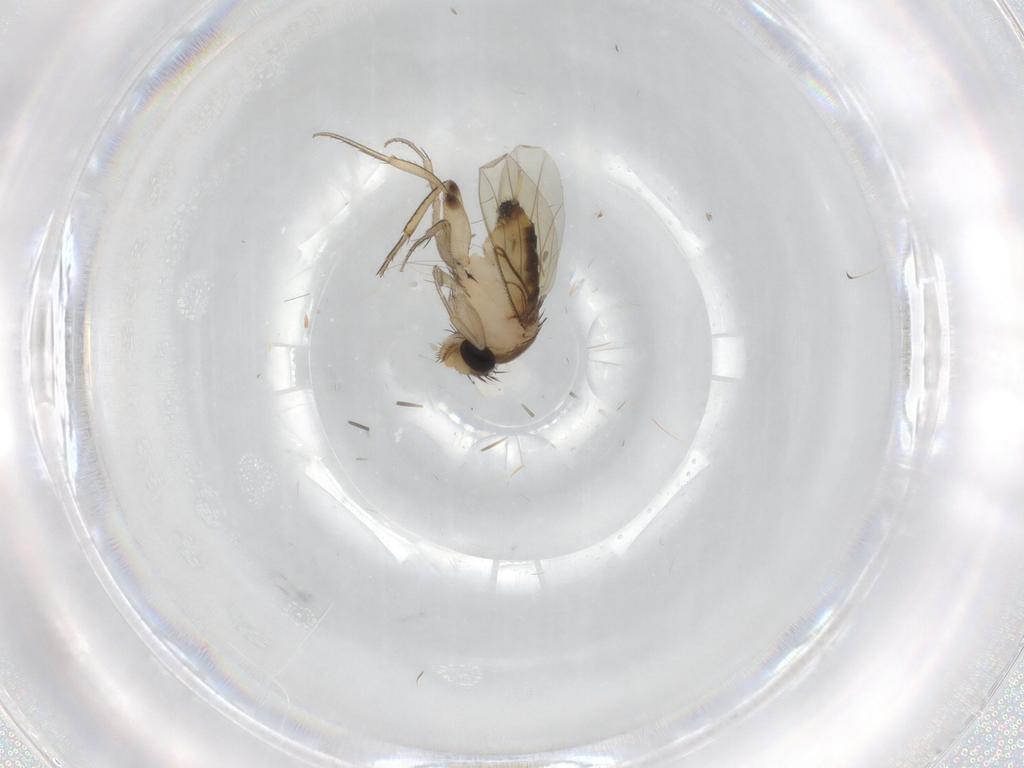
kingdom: Animalia
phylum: Arthropoda
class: Insecta
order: Diptera
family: Phoridae
